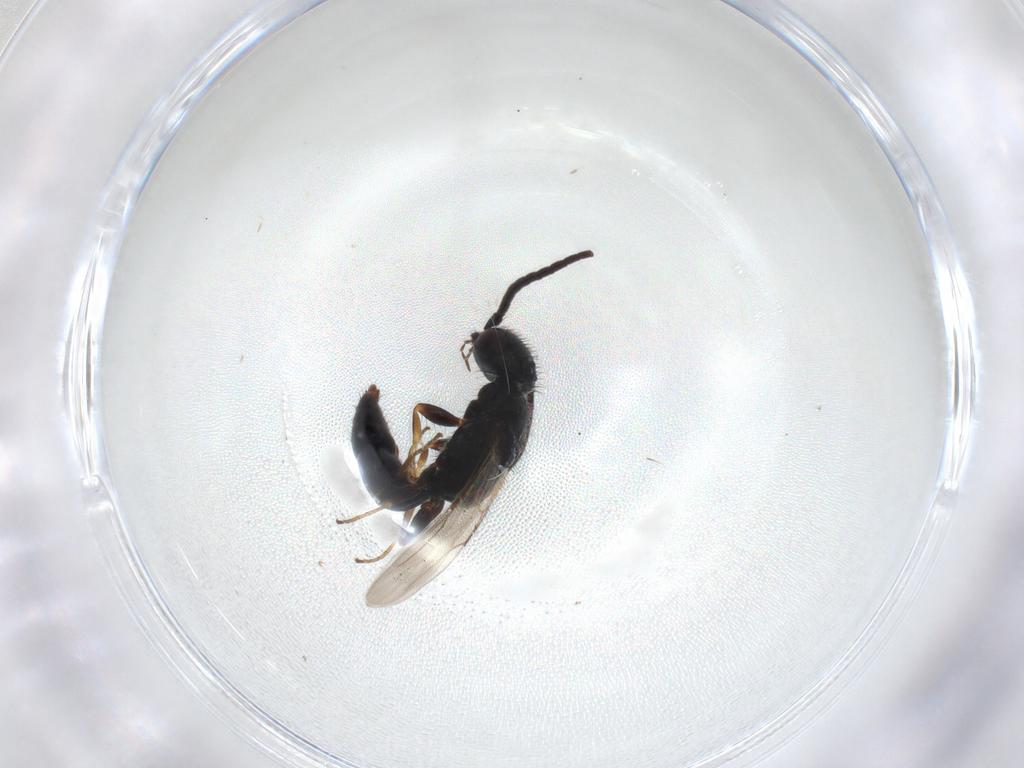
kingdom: Animalia
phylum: Arthropoda
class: Insecta
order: Hymenoptera
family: Bethylidae
